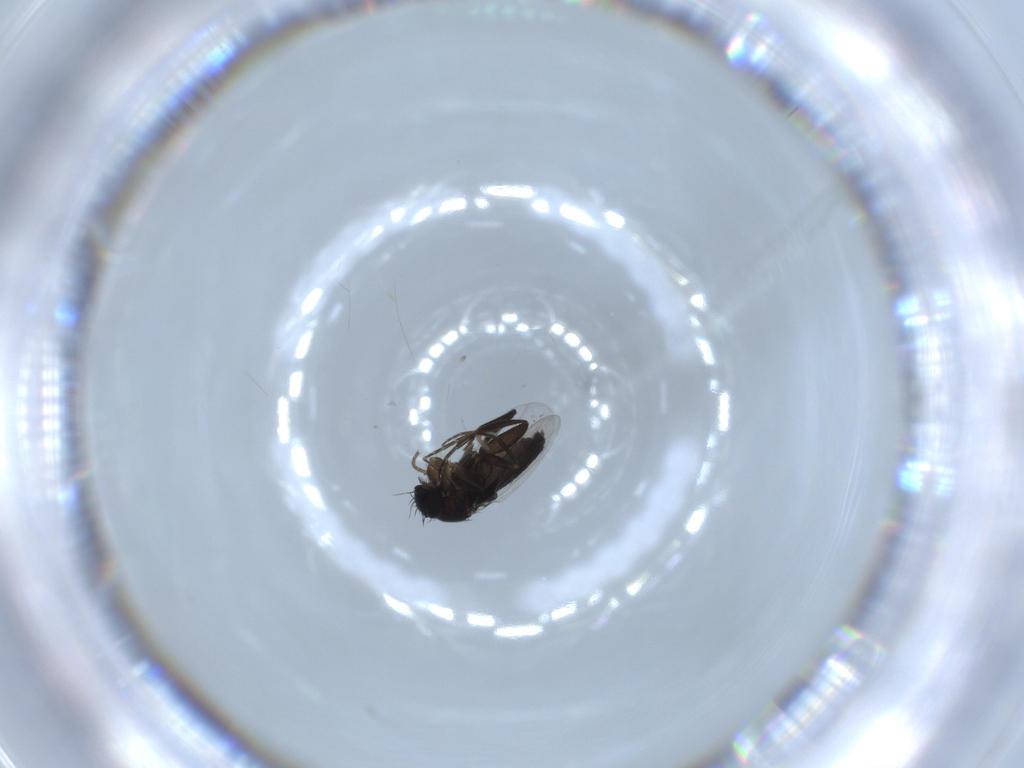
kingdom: Animalia
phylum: Arthropoda
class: Insecta
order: Diptera
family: Phoridae
